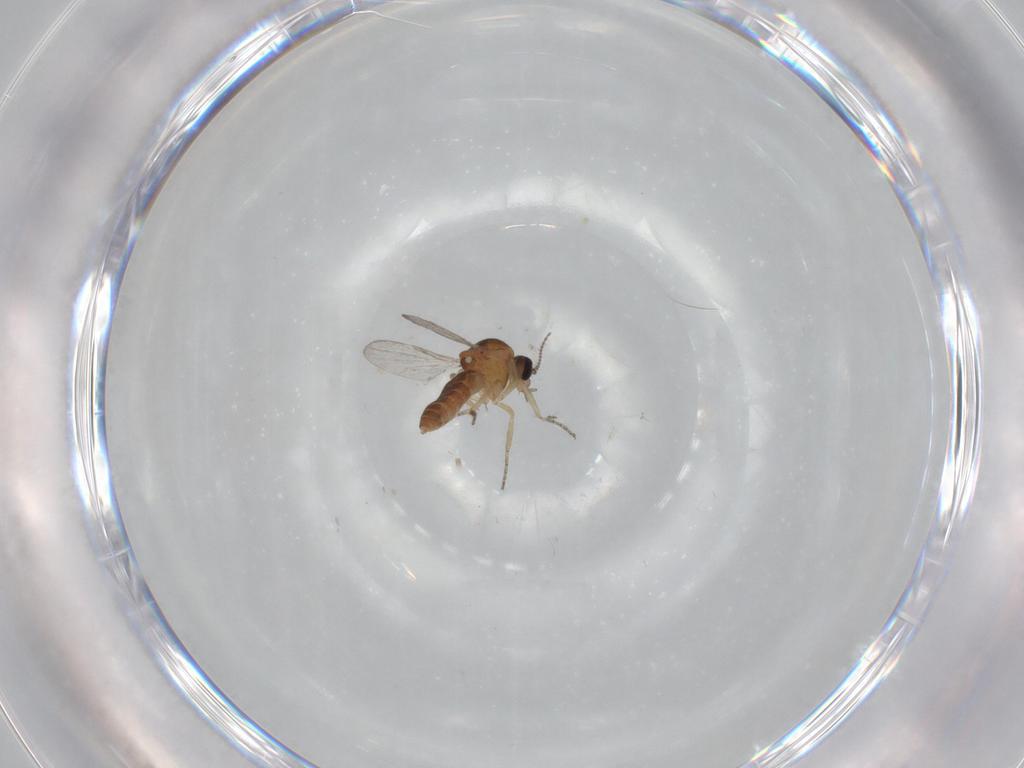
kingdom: Animalia
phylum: Arthropoda
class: Insecta
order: Diptera
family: Ceratopogonidae
